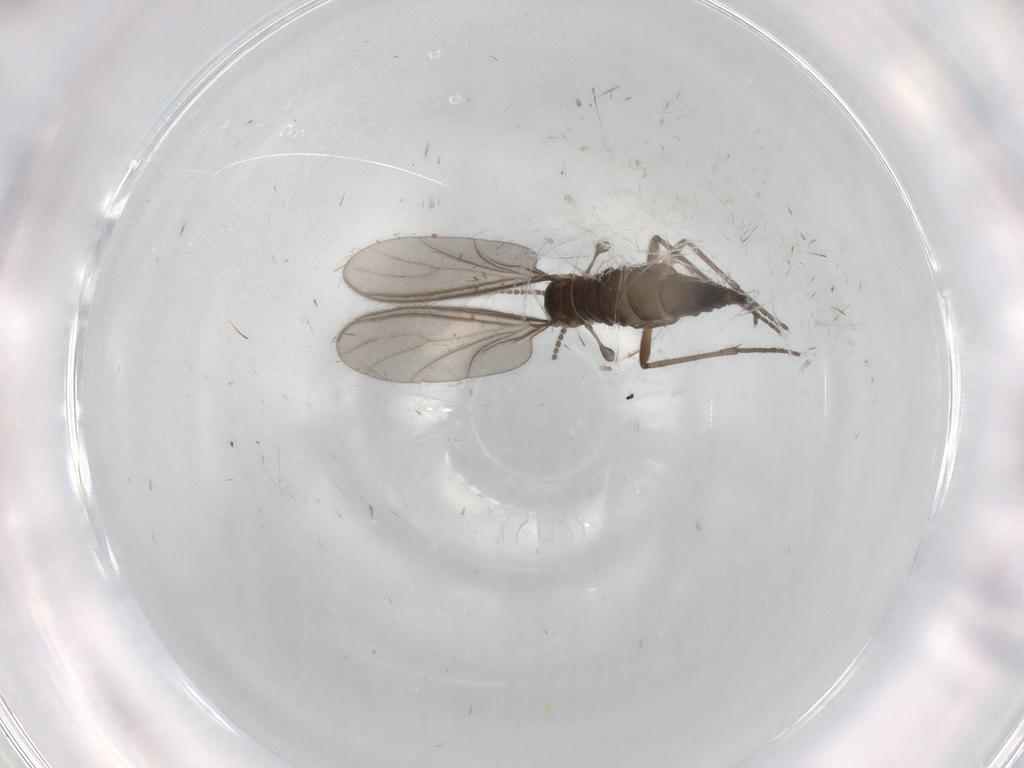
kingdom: Animalia
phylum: Arthropoda
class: Insecta
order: Diptera
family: Sciaridae
